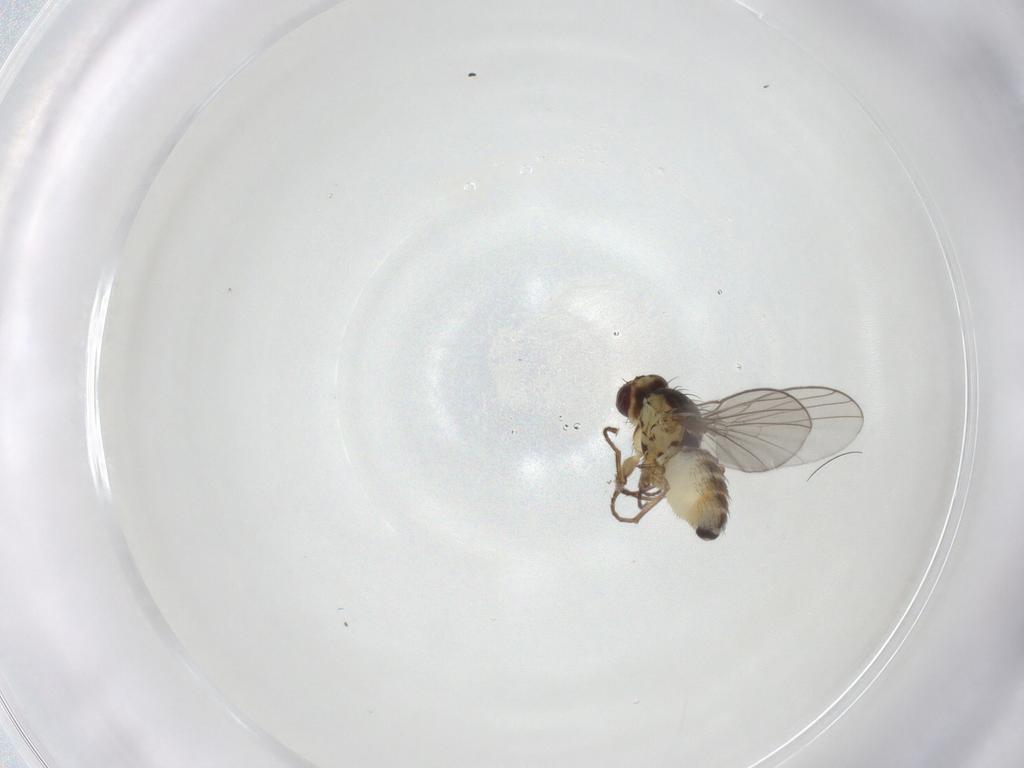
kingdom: Animalia
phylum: Arthropoda
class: Insecta
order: Diptera
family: Agromyzidae
